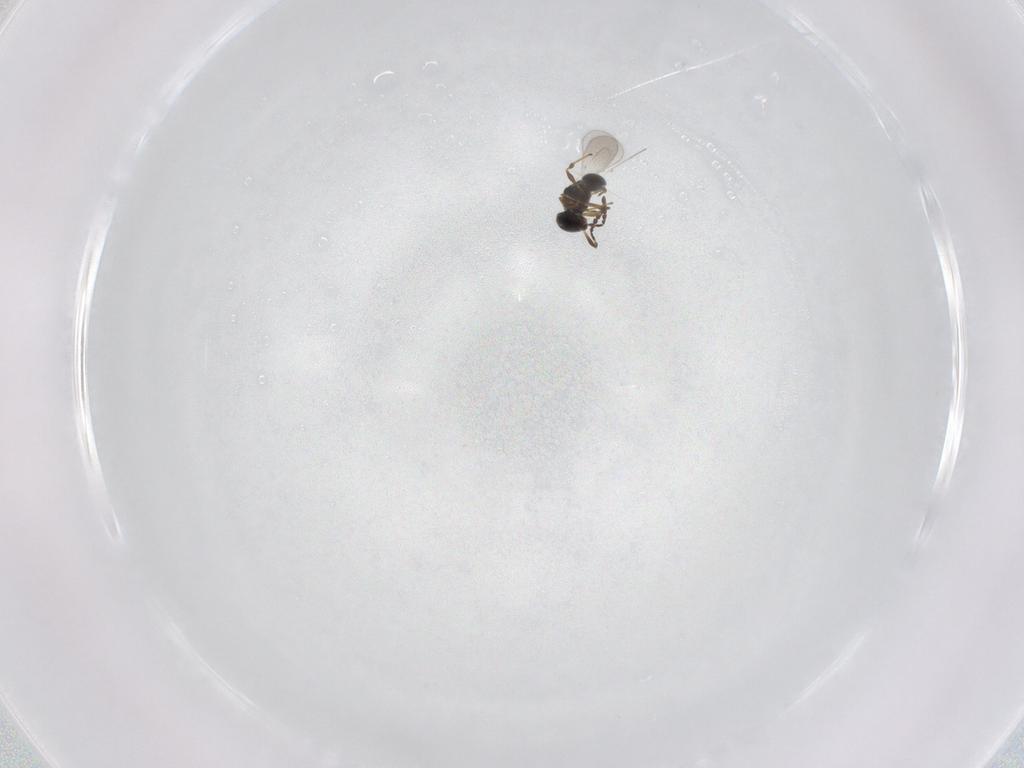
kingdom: Animalia
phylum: Arthropoda
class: Insecta
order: Hymenoptera
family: Platygastridae
